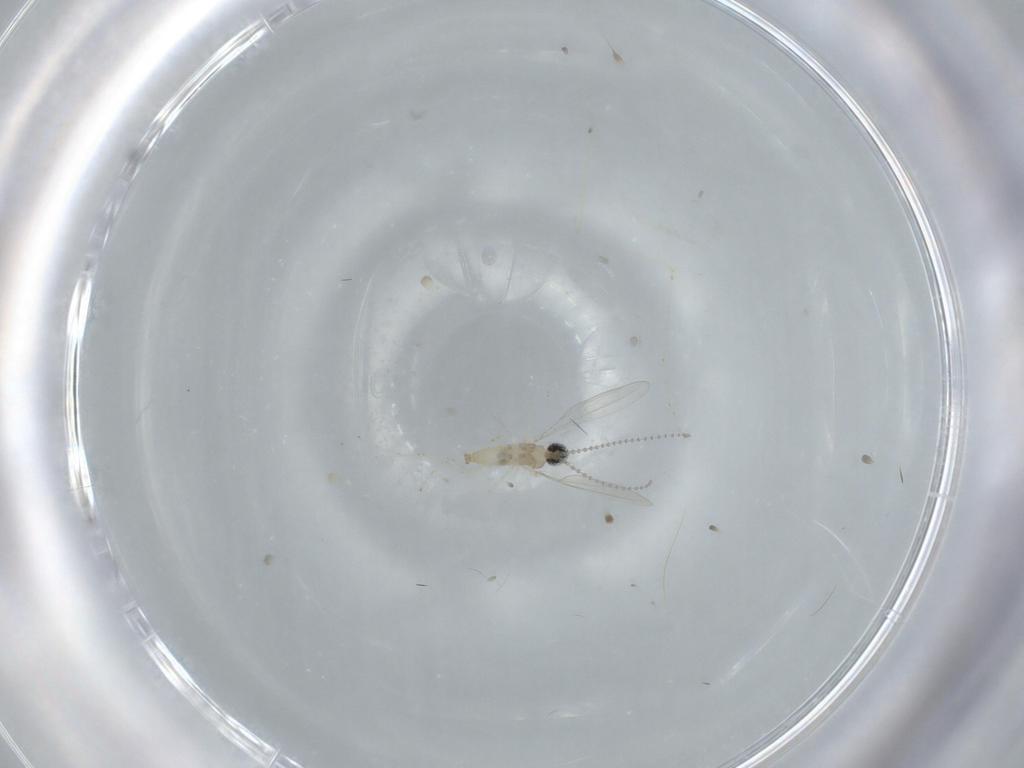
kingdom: Animalia
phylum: Arthropoda
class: Insecta
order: Diptera
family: Cecidomyiidae
